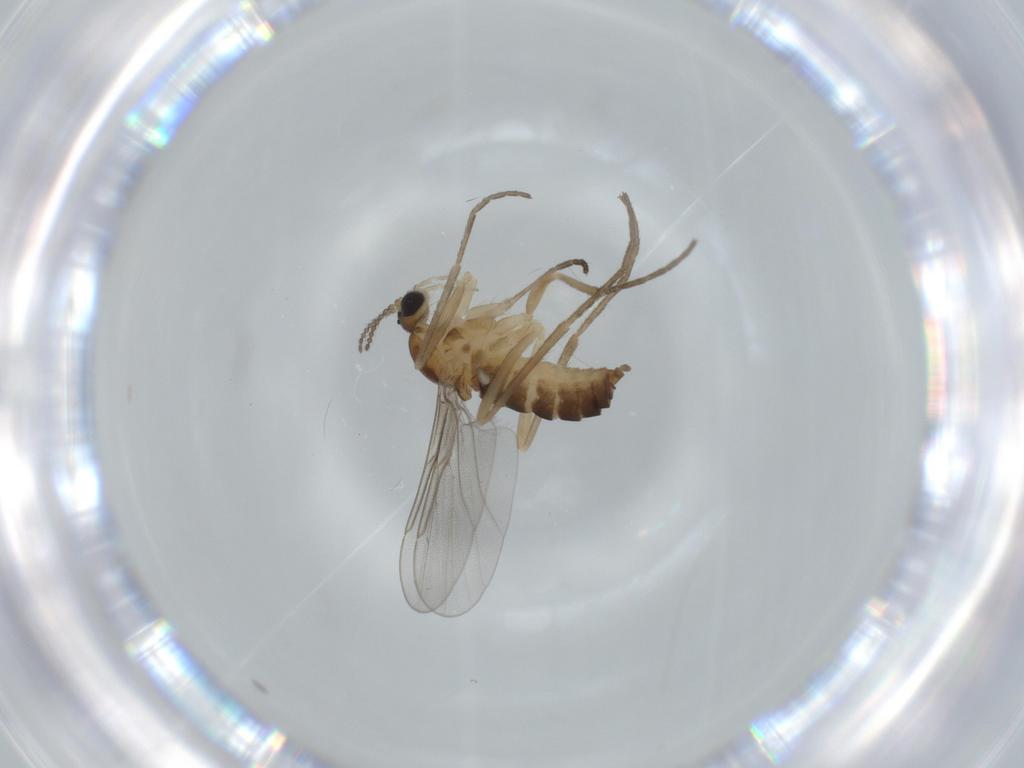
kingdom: Animalia
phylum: Arthropoda
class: Insecta
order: Diptera
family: Cecidomyiidae
